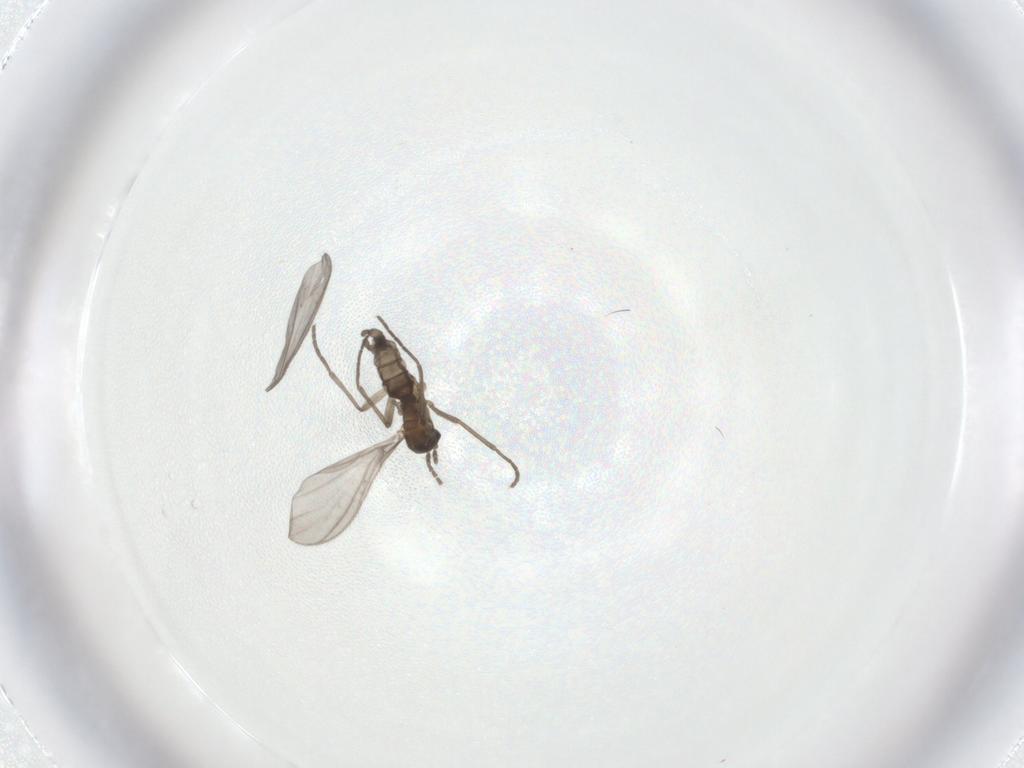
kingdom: Animalia
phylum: Arthropoda
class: Insecta
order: Diptera
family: Sciaridae
